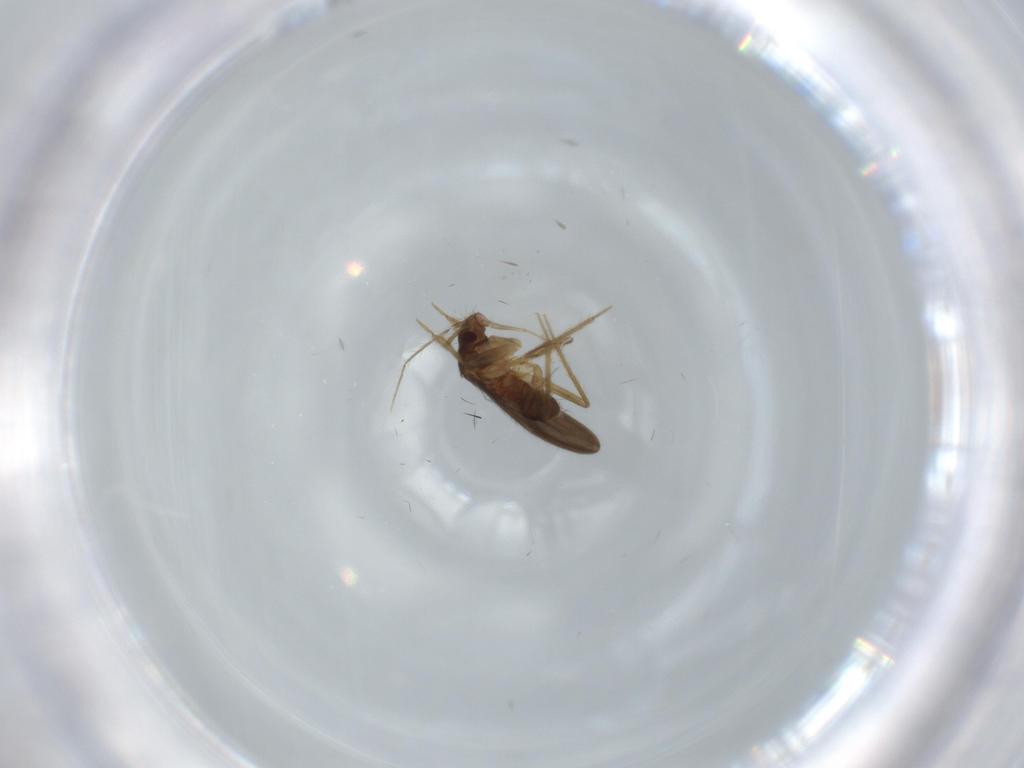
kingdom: Animalia
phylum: Arthropoda
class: Insecta
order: Hemiptera
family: Ceratocombidae
